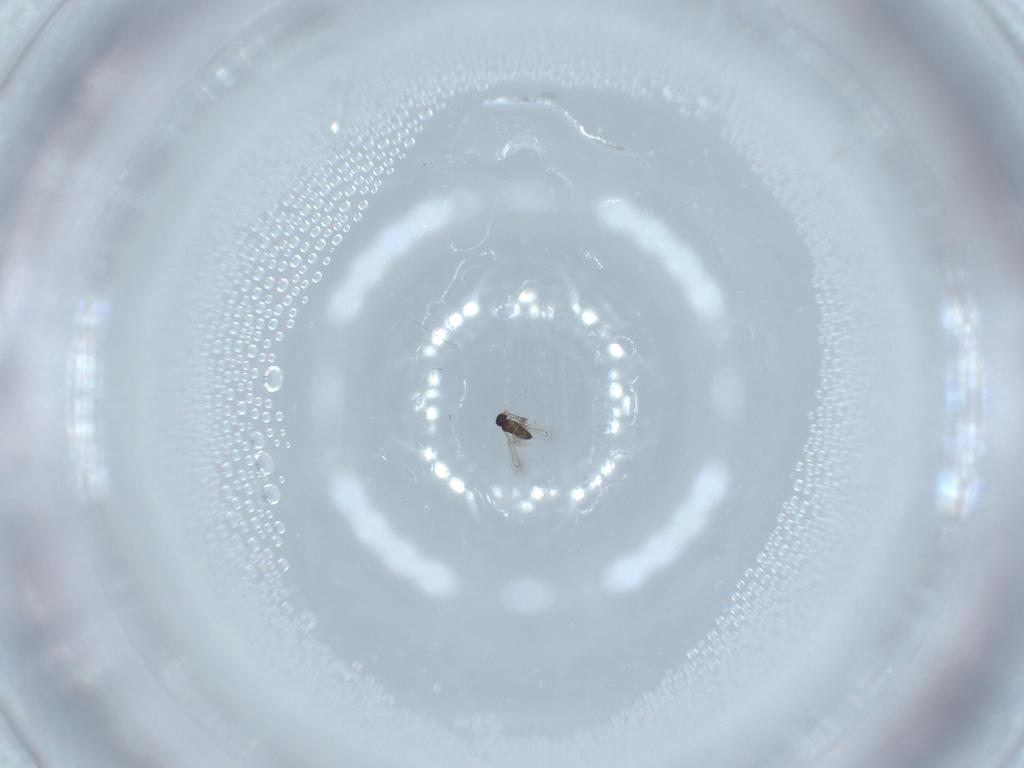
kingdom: Animalia
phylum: Arthropoda
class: Insecta
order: Hymenoptera
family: Mymaridae
